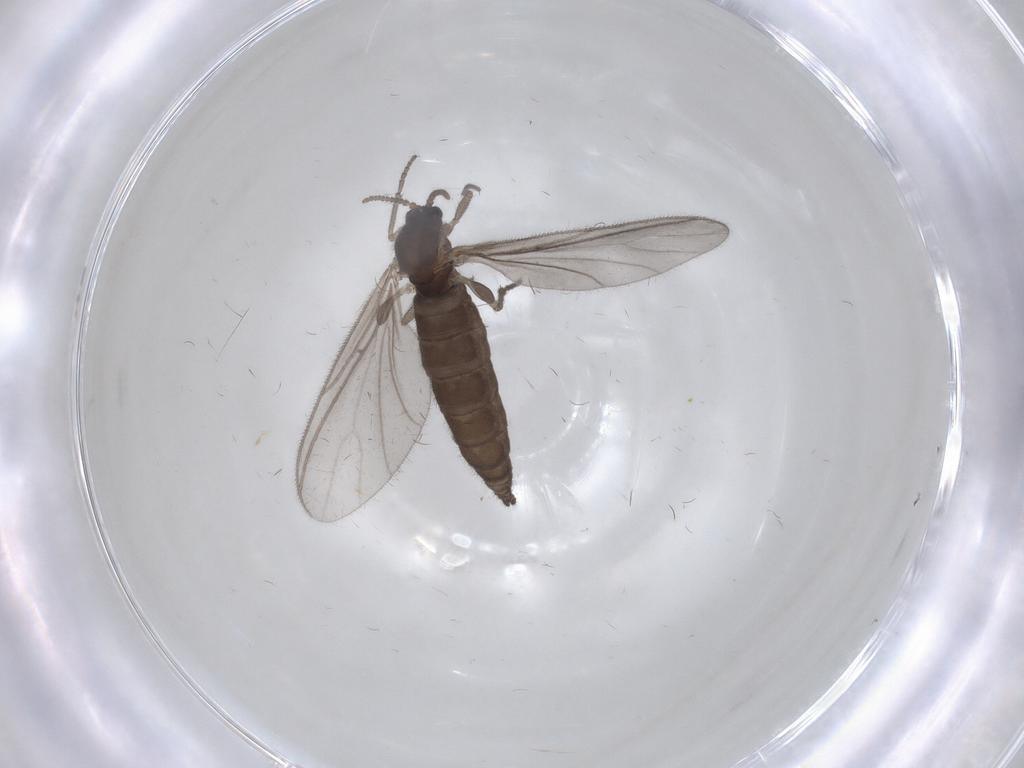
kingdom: Animalia
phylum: Arthropoda
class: Insecta
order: Diptera
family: Sciaridae
